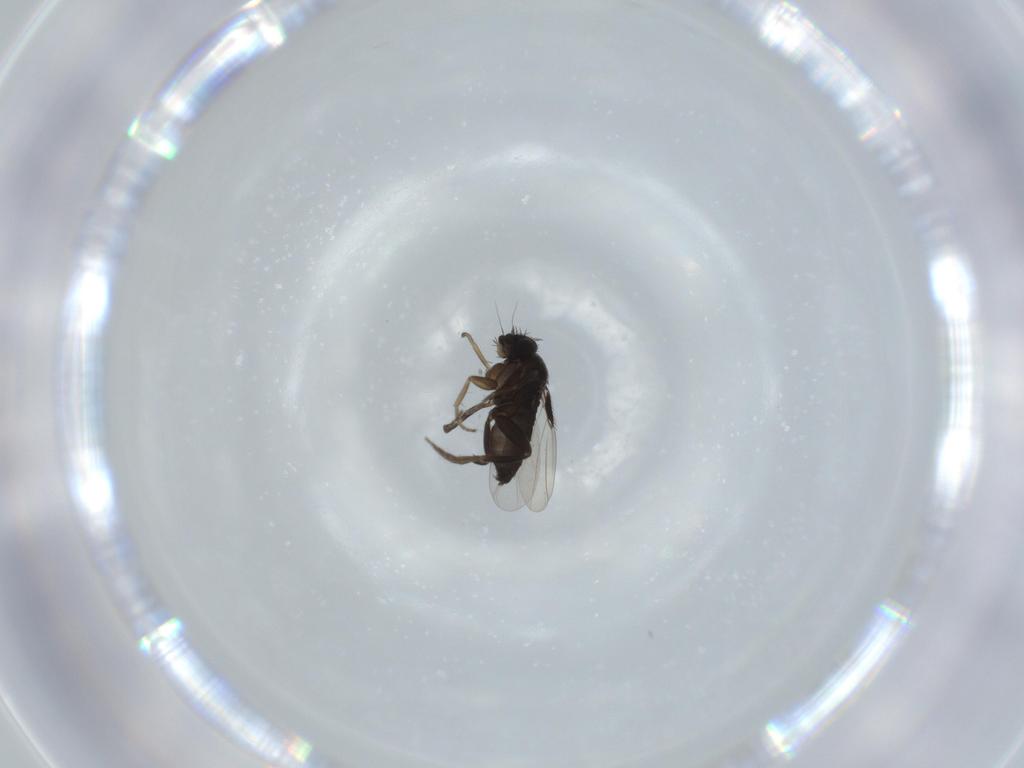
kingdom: Animalia
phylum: Arthropoda
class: Insecta
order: Diptera
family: Phoridae
